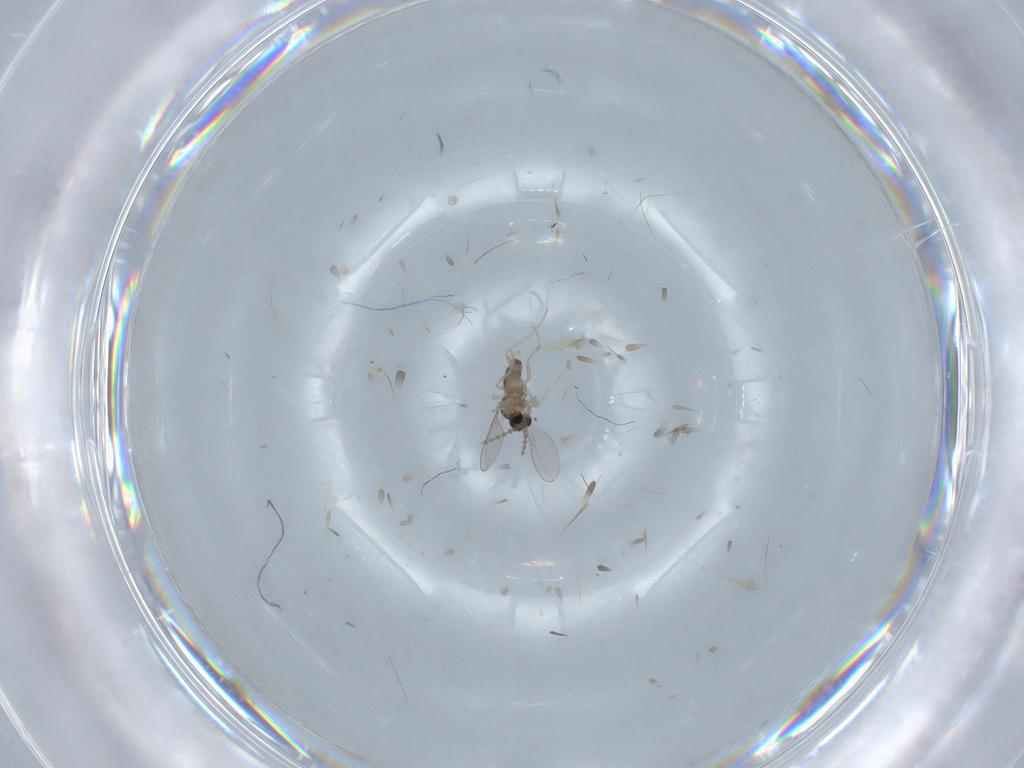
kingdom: Animalia
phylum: Arthropoda
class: Insecta
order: Diptera
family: Cecidomyiidae
